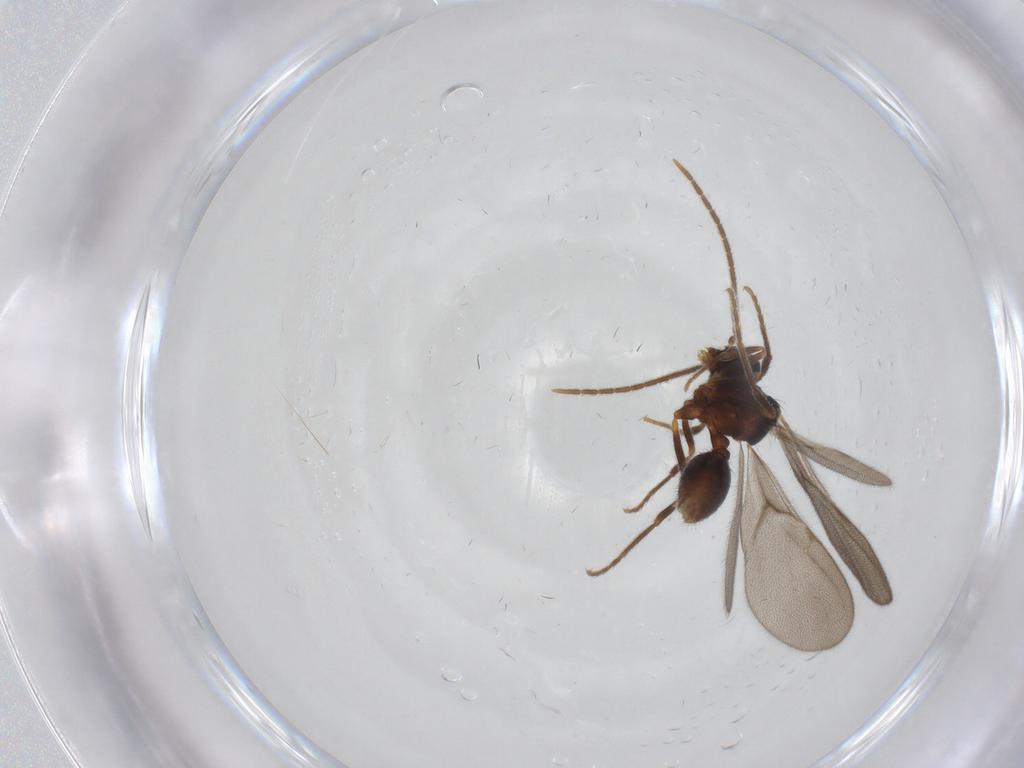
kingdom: Animalia
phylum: Arthropoda
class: Insecta
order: Hymenoptera
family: Formicidae
